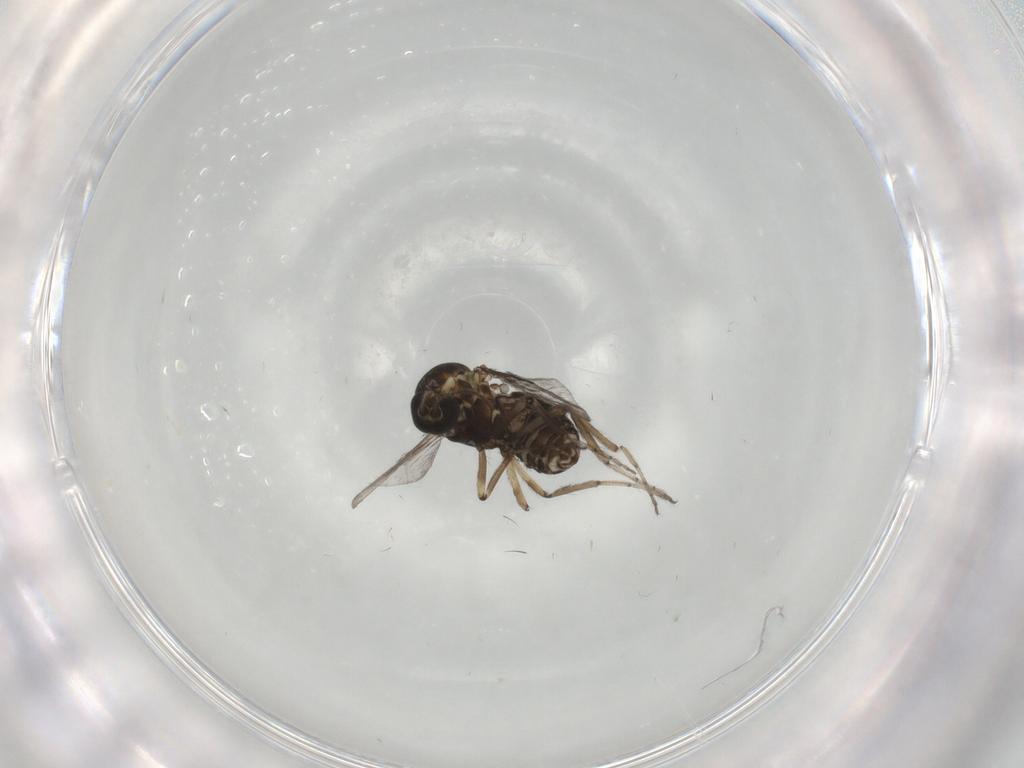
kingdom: Animalia
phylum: Arthropoda
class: Insecta
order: Diptera
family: Ceratopogonidae
